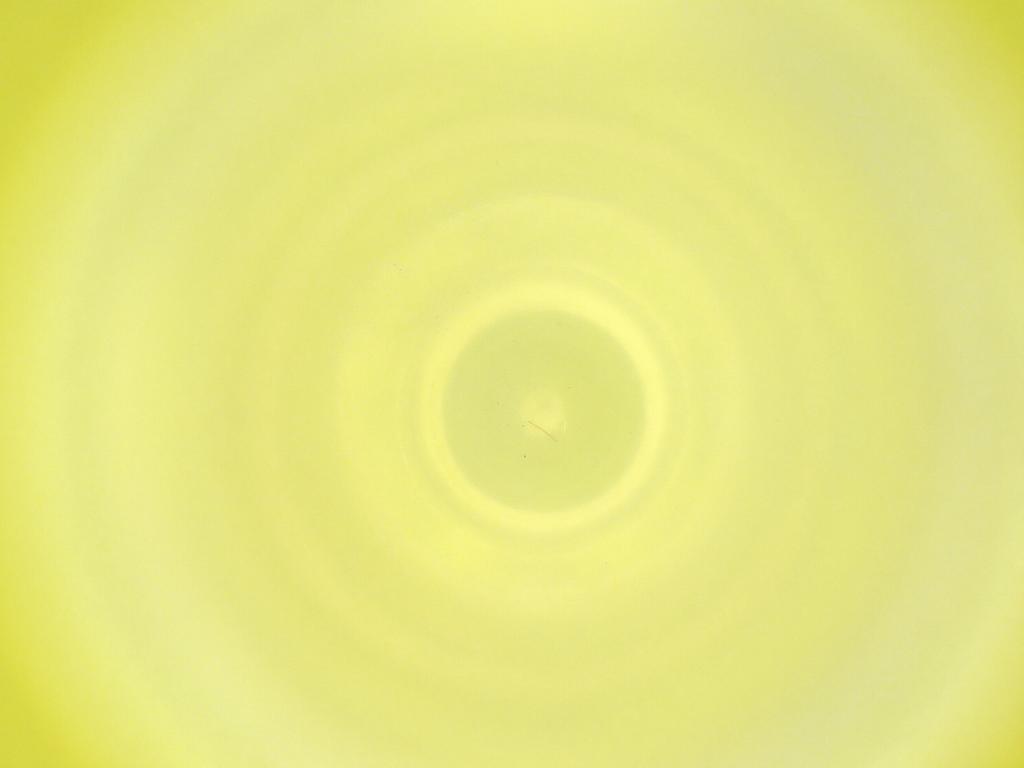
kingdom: Animalia
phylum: Arthropoda
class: Insecta
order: Diptera
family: Cecidomyiidae
